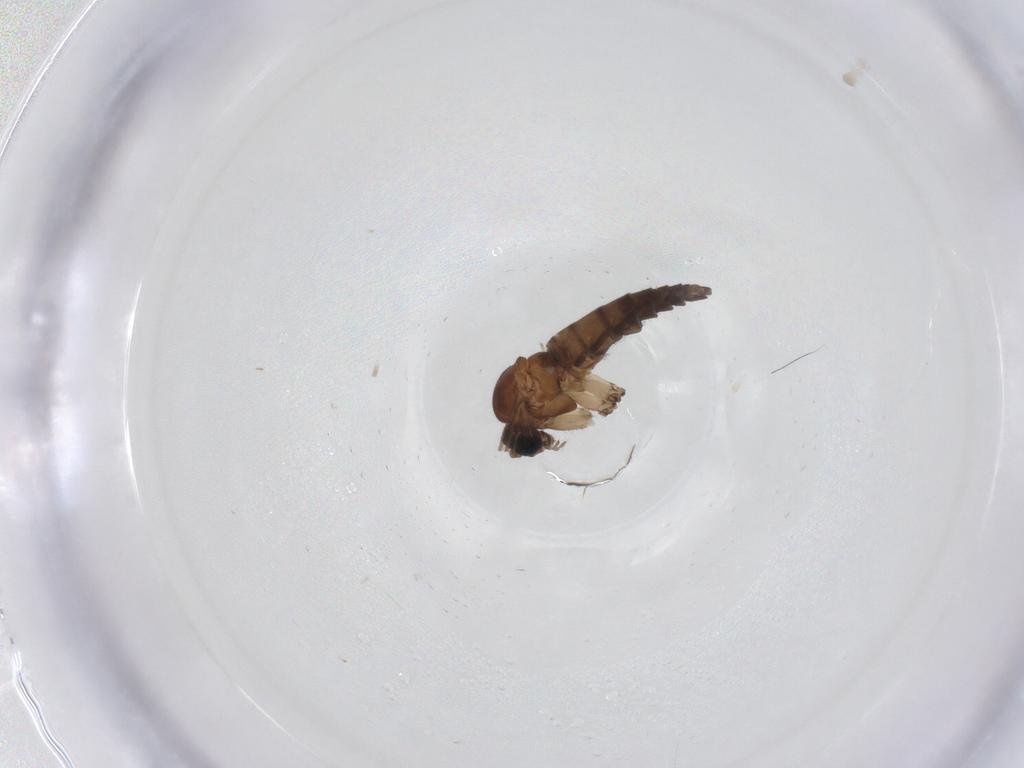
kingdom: Animalia
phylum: Arthropoda
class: Insecta
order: Diptera
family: Sciaridae
